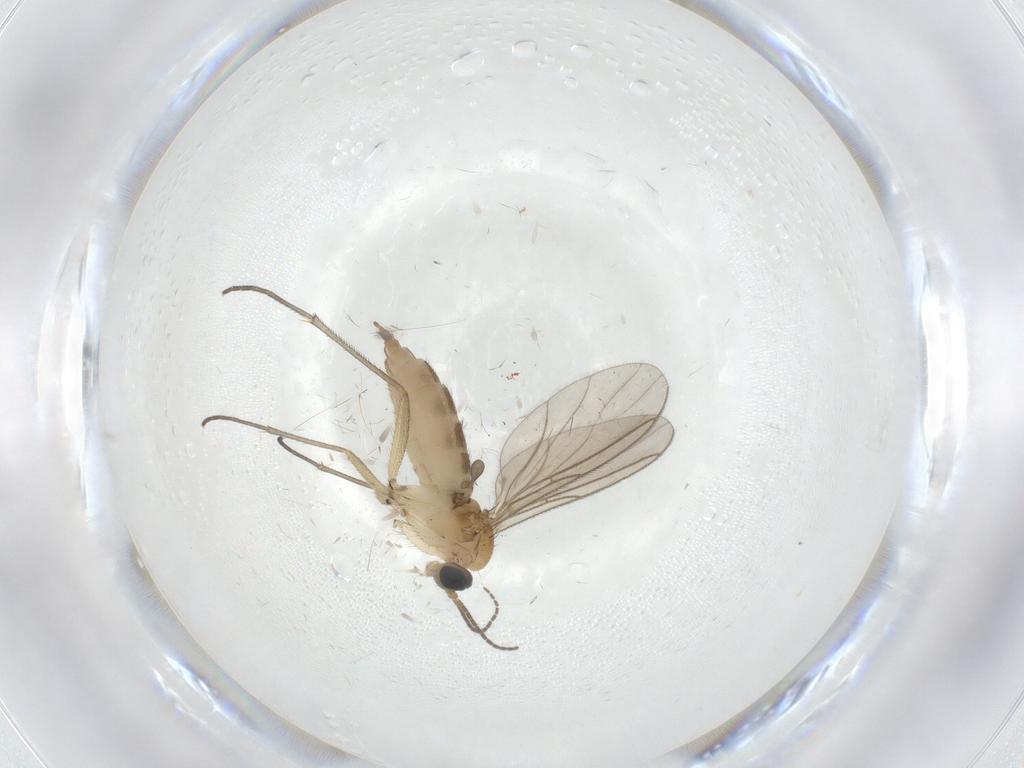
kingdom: Animalia
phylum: Arthropoda
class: Insecta
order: Diptera
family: Sciaridae
